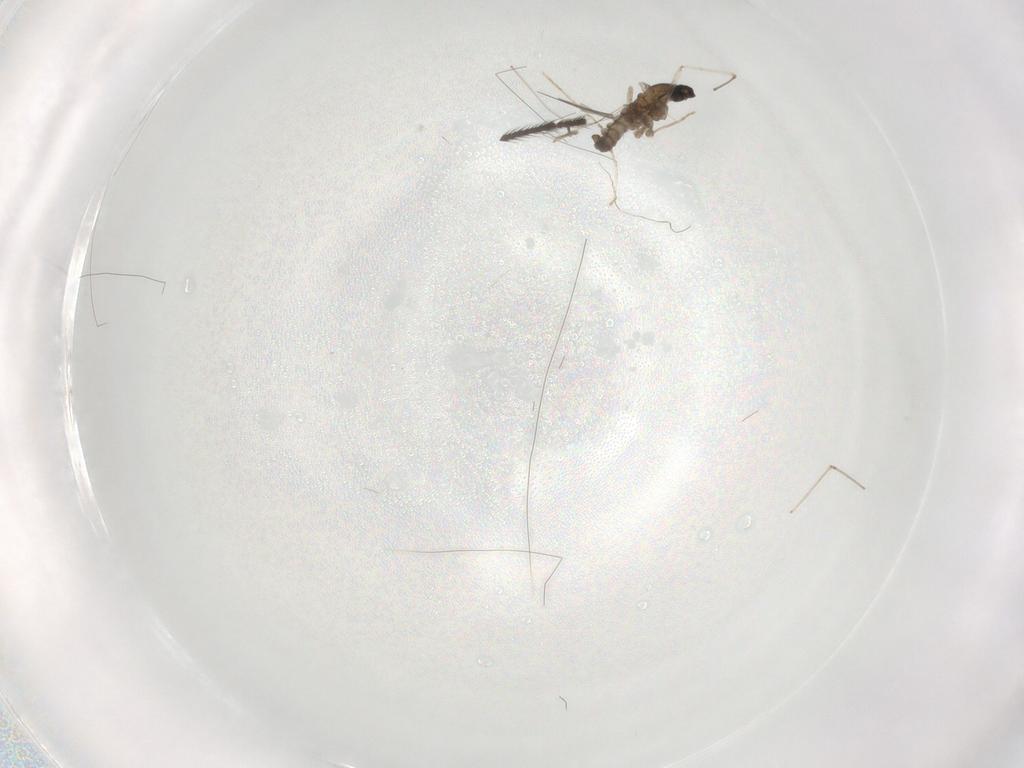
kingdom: Animalia
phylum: Arthropoda
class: Insecta
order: Diptera
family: Cecidomyiidae
